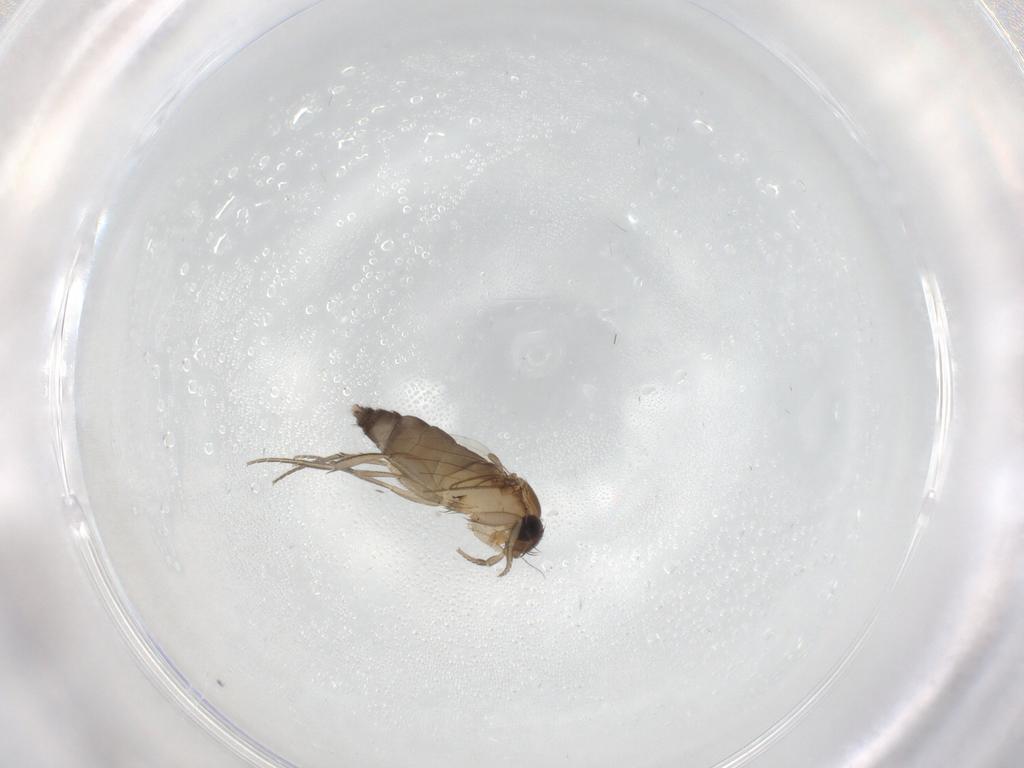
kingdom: Animalia
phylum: Arthropoda
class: Insecta
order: Diptera
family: Phoridae
